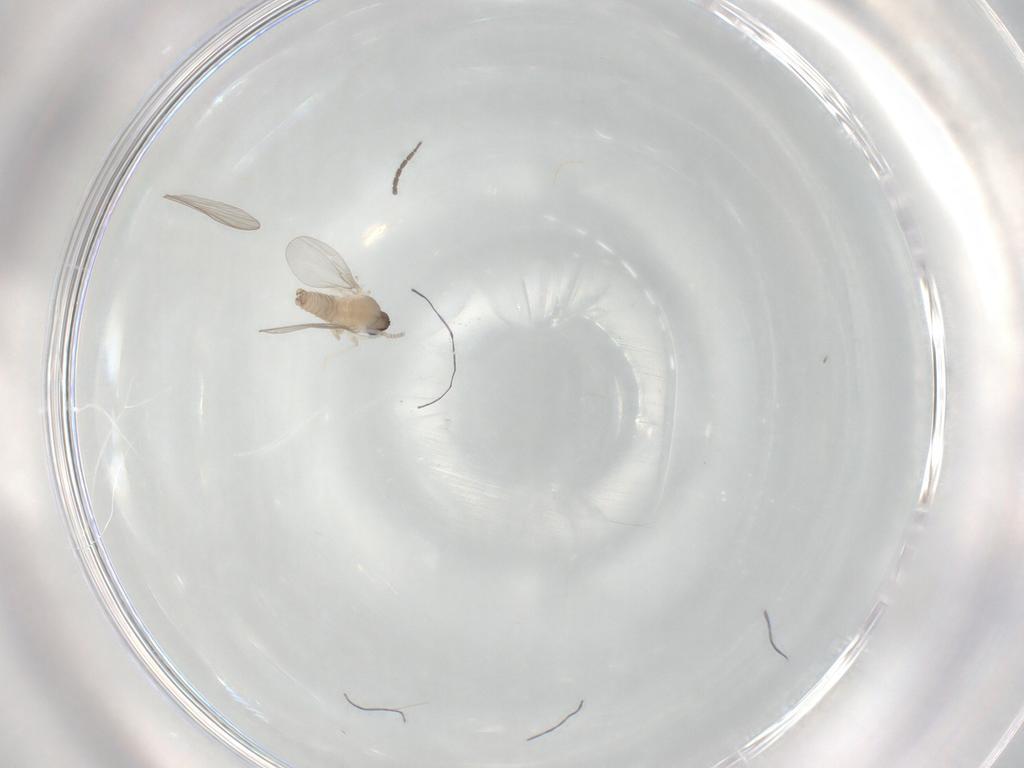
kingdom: Animalia
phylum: Arthropoda
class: Insecta
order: Diptera
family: Cecidomyiidae
